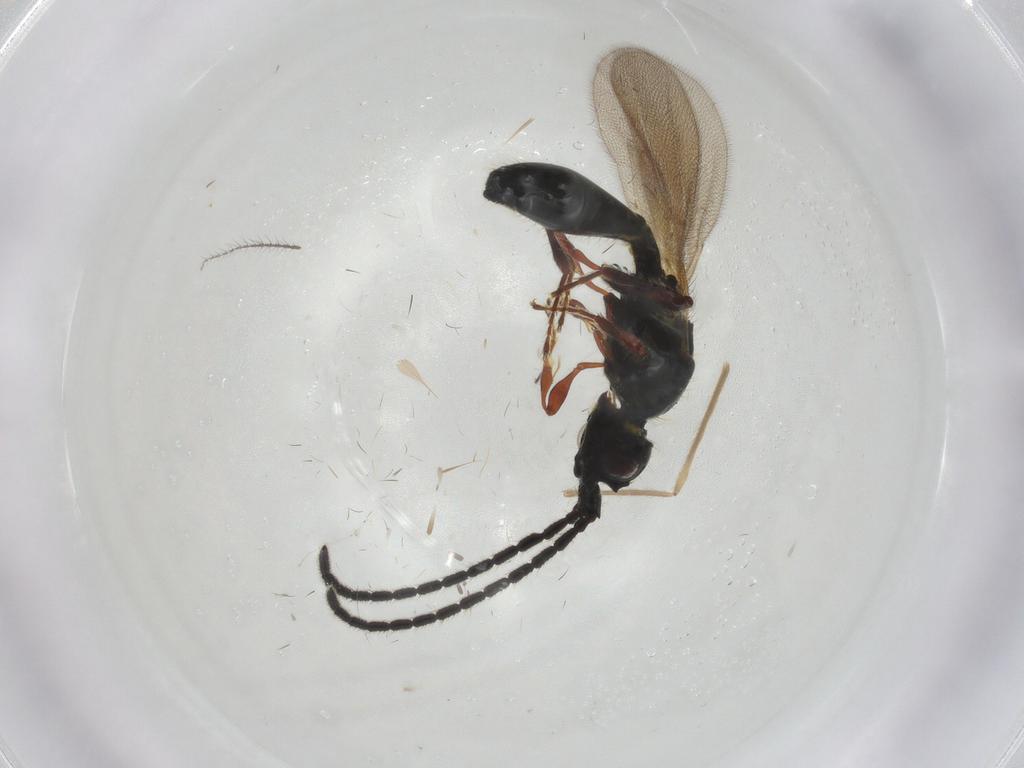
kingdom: Animalia
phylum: Arthropoda
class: Insecta
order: Hymenoptera
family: Diapriidae
